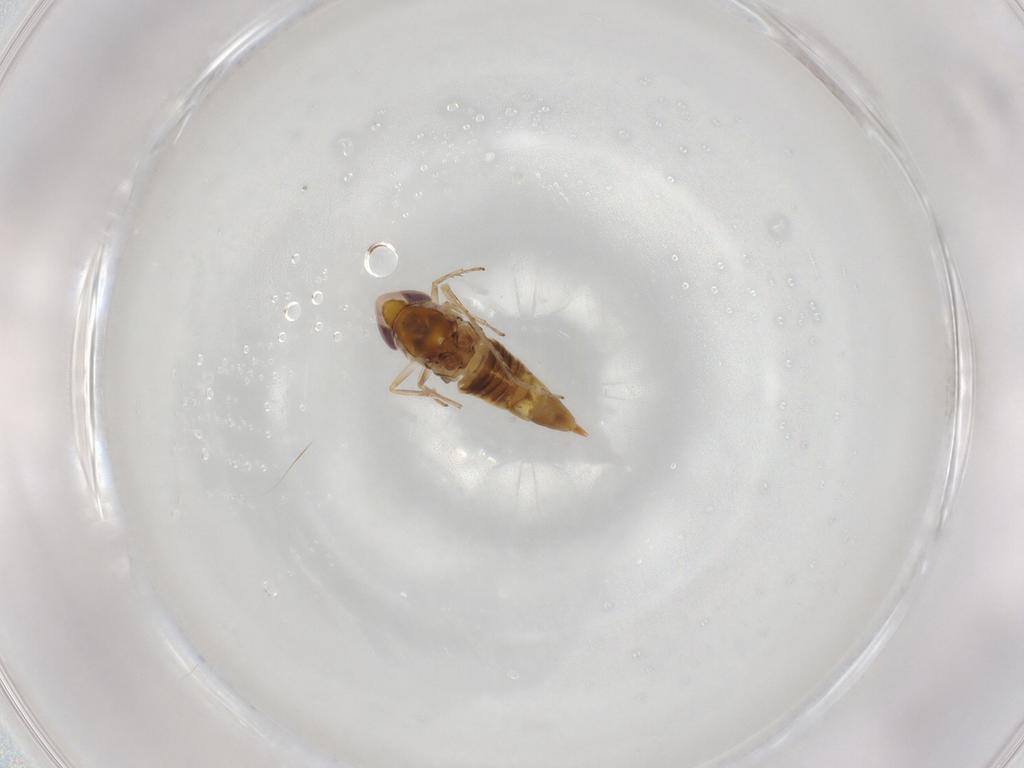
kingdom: Animalia
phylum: Arthropoda
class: Insecta
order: Hemiptera
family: Cicadellidae
